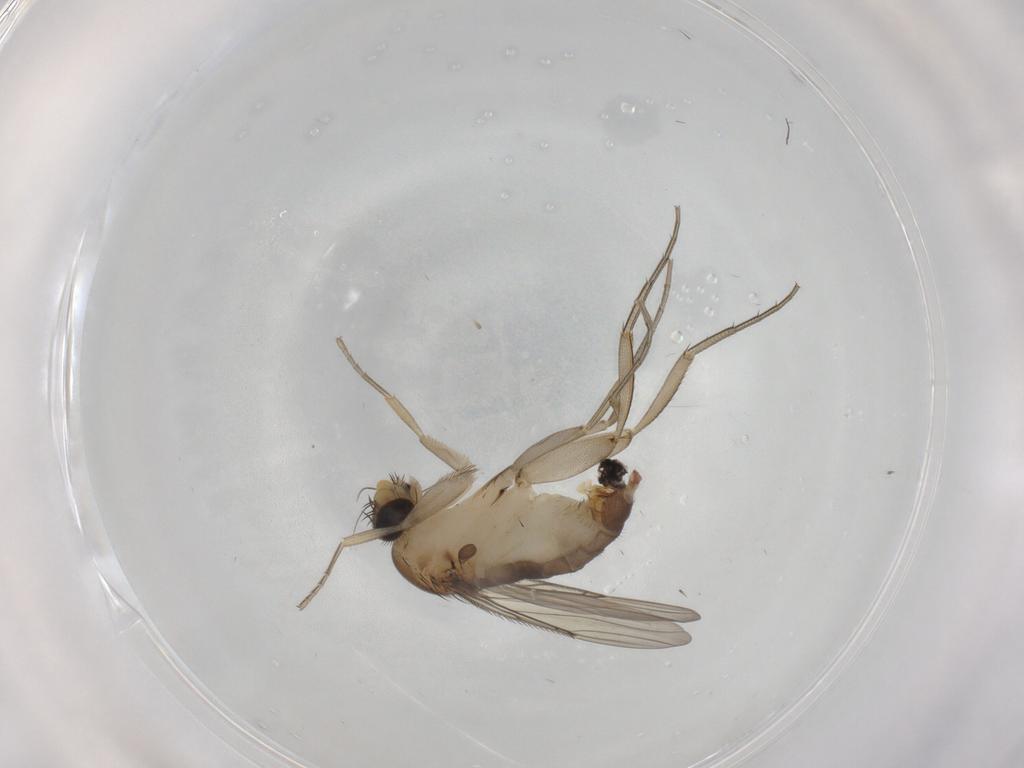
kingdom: Animalia
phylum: Arthropoda
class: Insecta
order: Diptera
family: Phoridae
